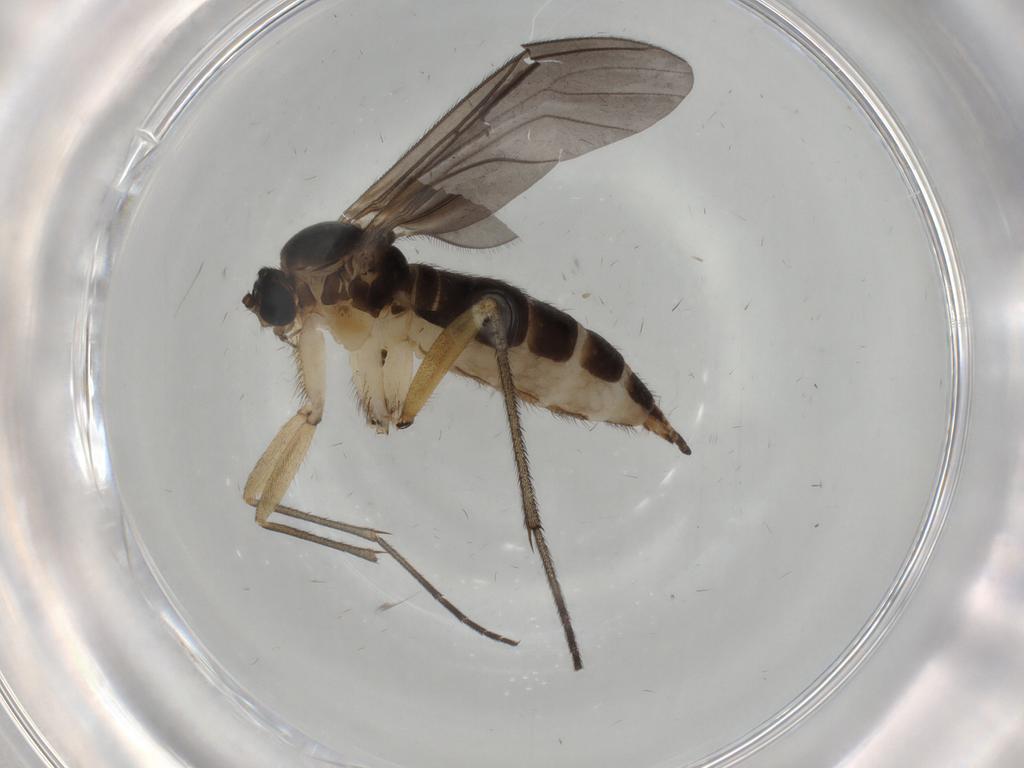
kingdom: Animalia
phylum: Arthropoda
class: Insecta
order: Diptera
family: Sciaridae
